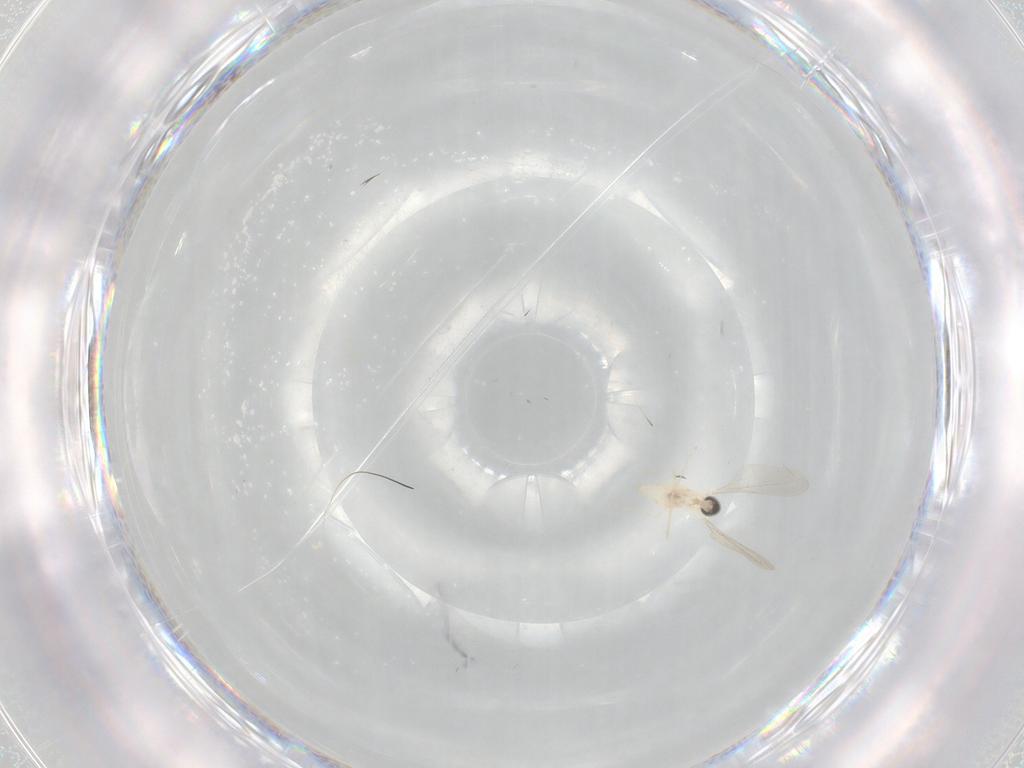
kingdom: Animalia
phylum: Arthropoda
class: Insecta
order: Diptera
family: Cecidomyiidae
